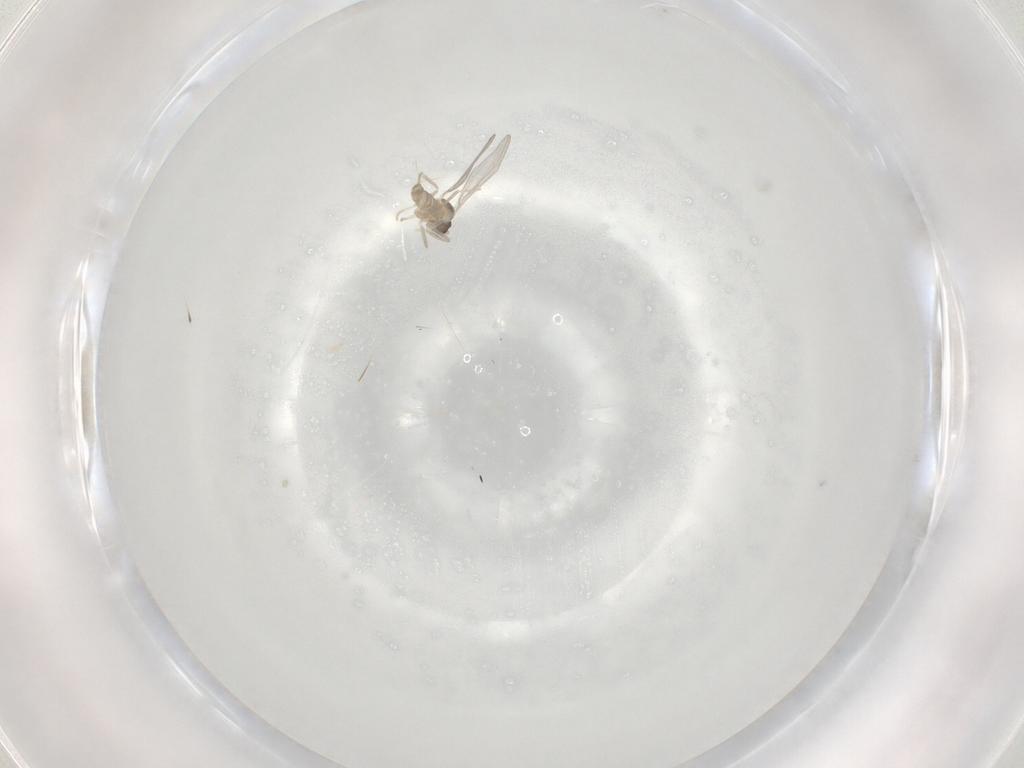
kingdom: Animalia
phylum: Arthropoda
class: Insecta
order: Diptera
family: Cecidomyiidae
